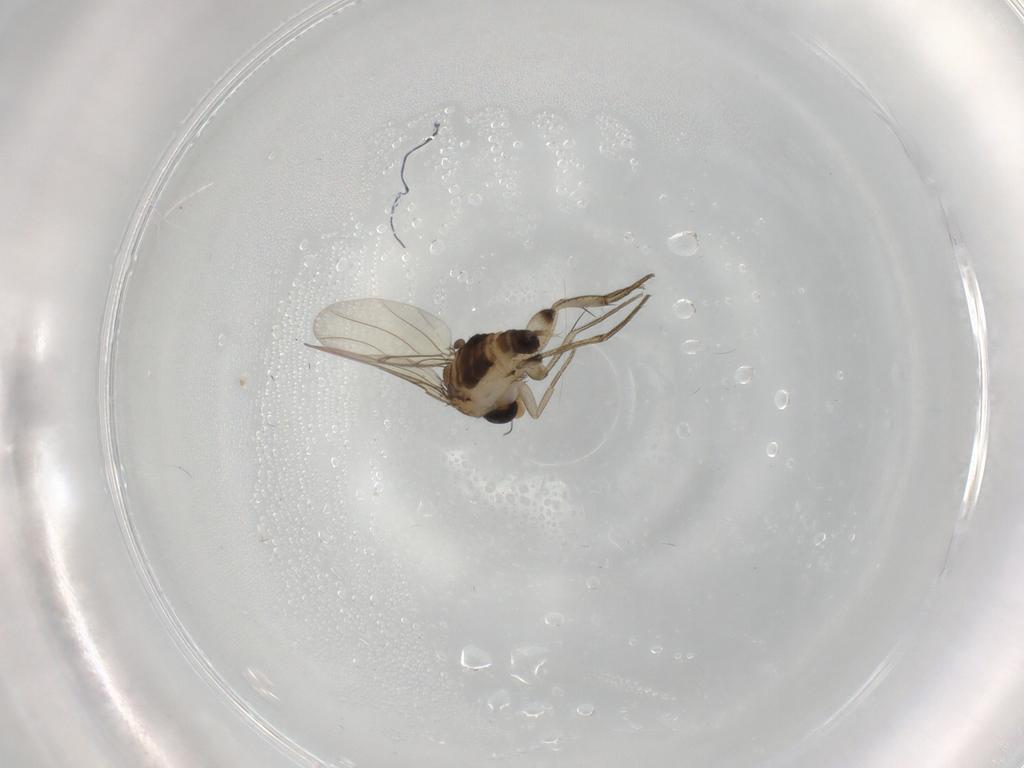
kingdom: Animalia
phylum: Arthropoda
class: Insecta
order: Diptera
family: Phoridae
